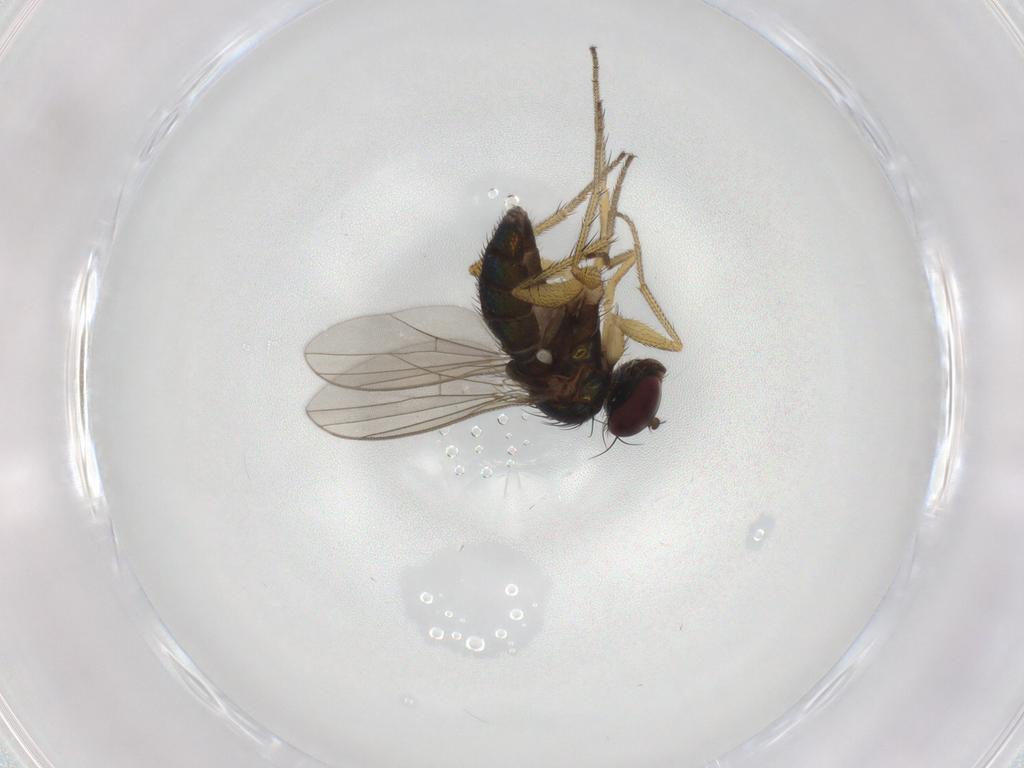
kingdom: Animalia
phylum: Arthropoda
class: Insecta
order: Diptera
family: Dolichopodidae
